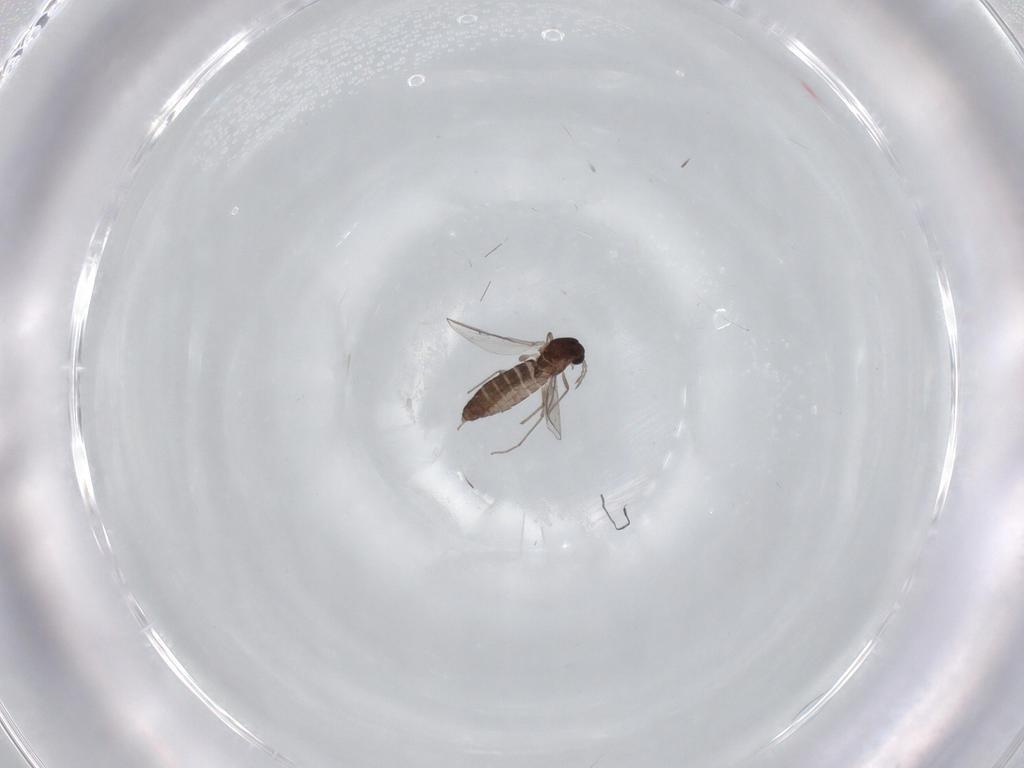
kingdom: Animalia
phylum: Arthropoda
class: Insecta
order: Diptera
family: Chironomidae
